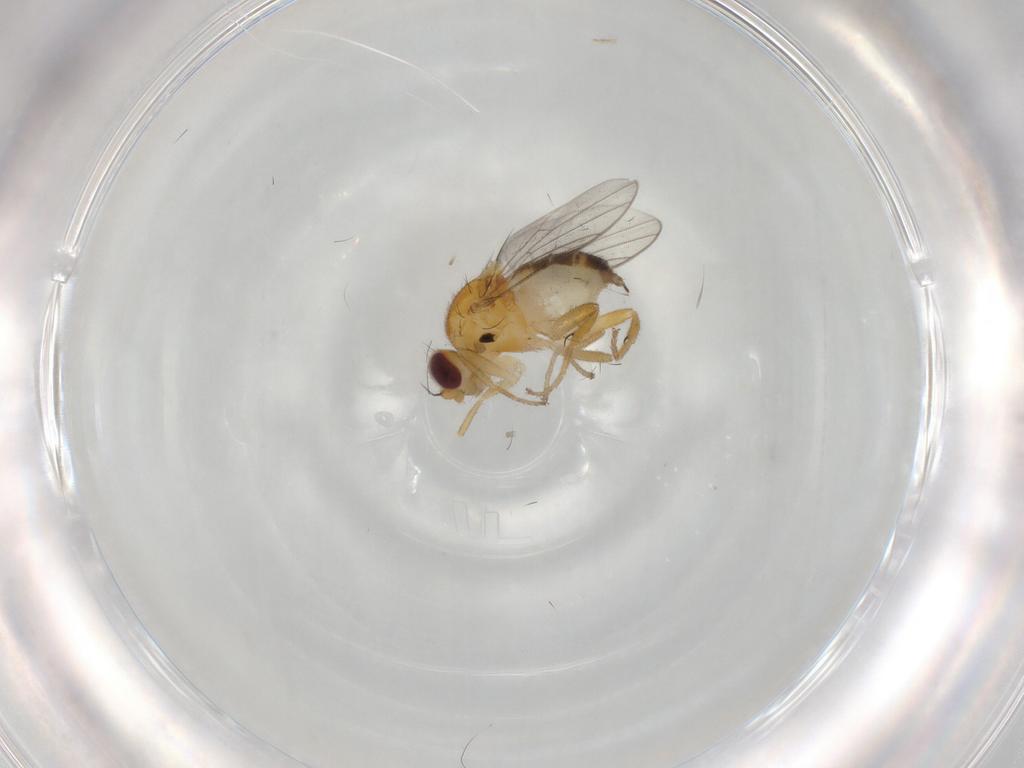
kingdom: Animalia
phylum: Arthropoda
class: Insecta
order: Diptera
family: Chloropidae
